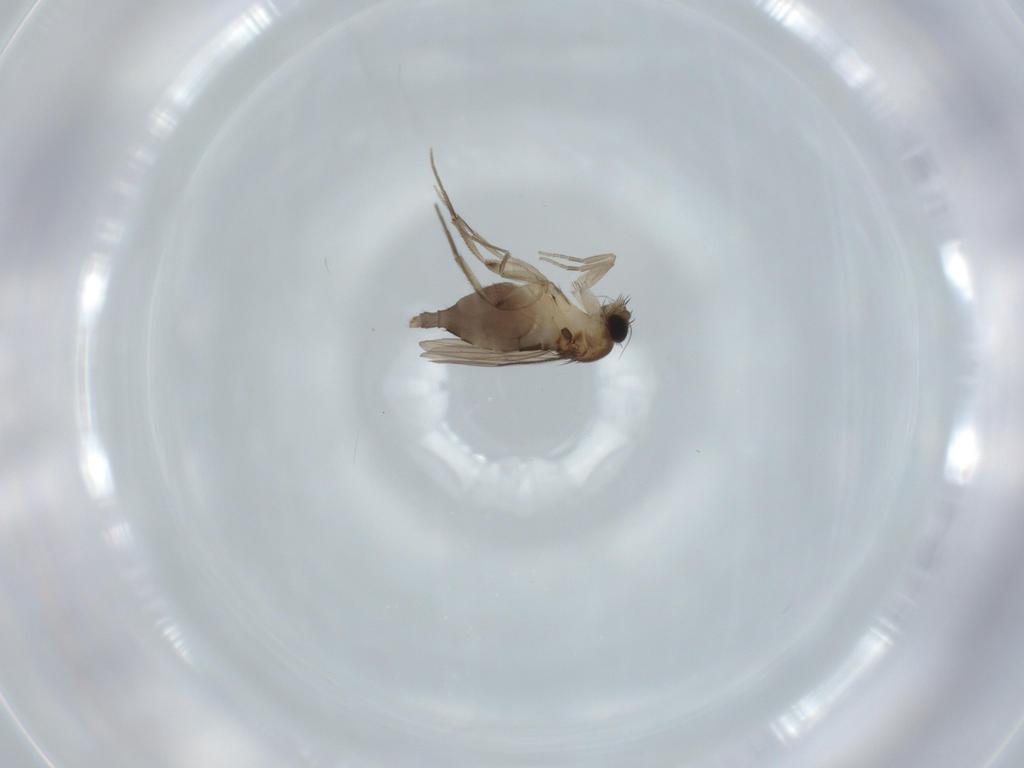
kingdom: Animalia
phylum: Arthropoda
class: Insecta
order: Diptera
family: Phoridae
